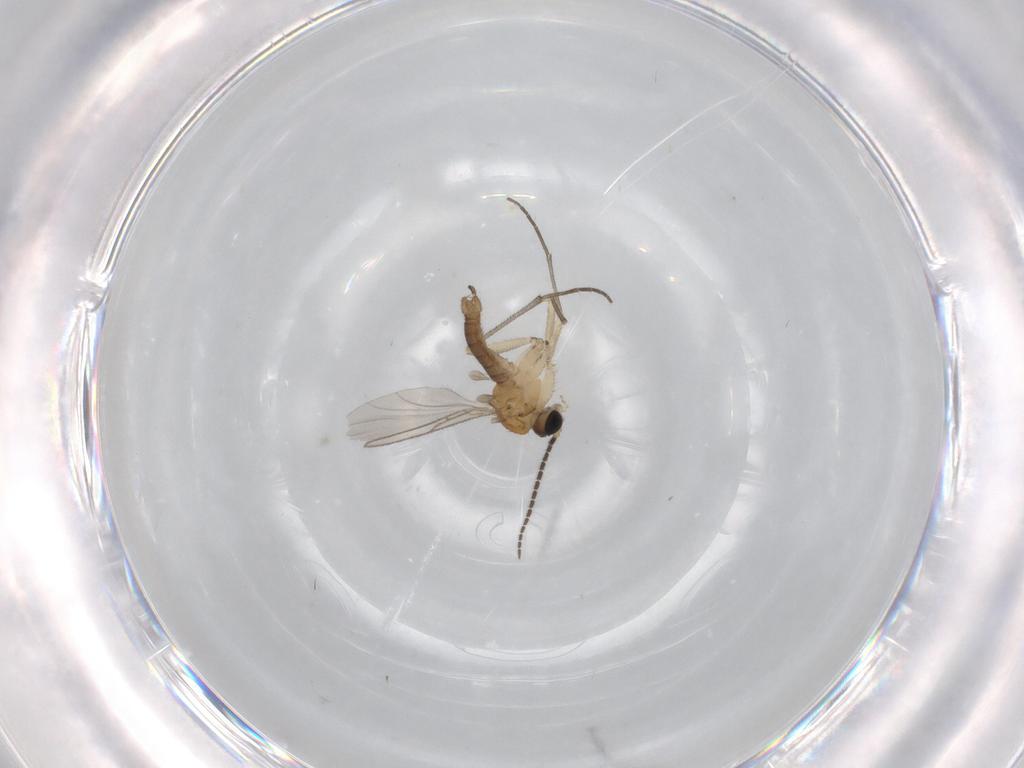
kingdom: Animalia
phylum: Arthropoda
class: Insecta
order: Diptera
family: Sciaridae
